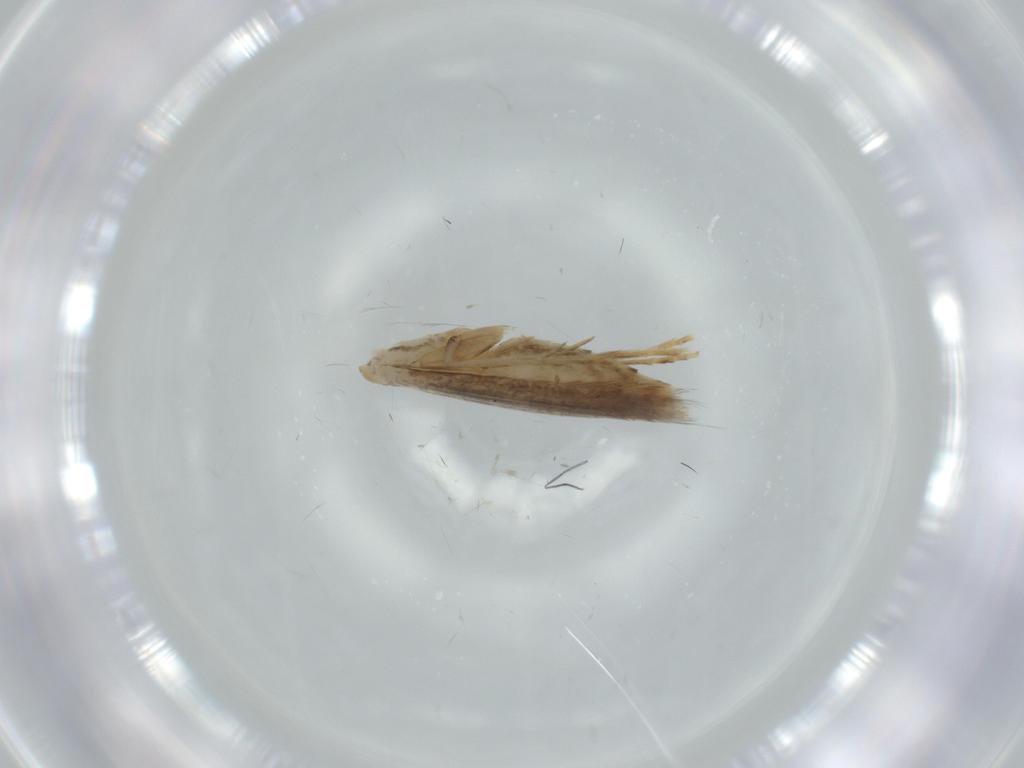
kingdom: Animalia
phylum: Arthropoda
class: Insecta
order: Lepidoptera
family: Gracillariidae
